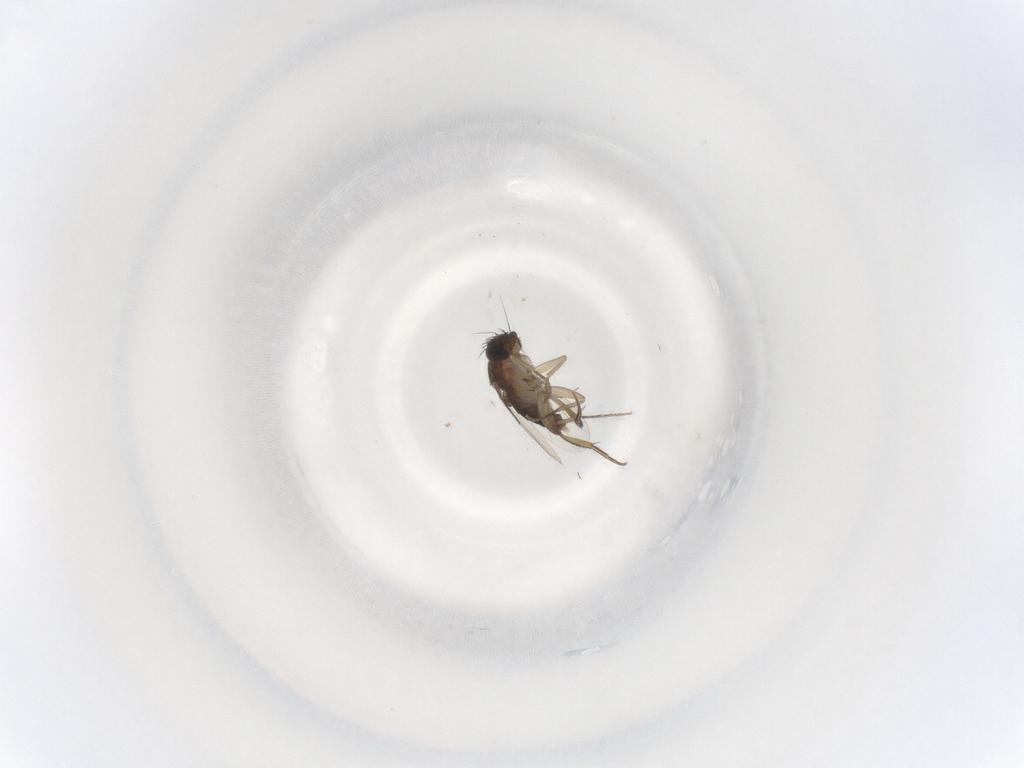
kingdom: Animalia
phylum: Arthropoda
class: Insecta
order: Diptera
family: Phoridae
